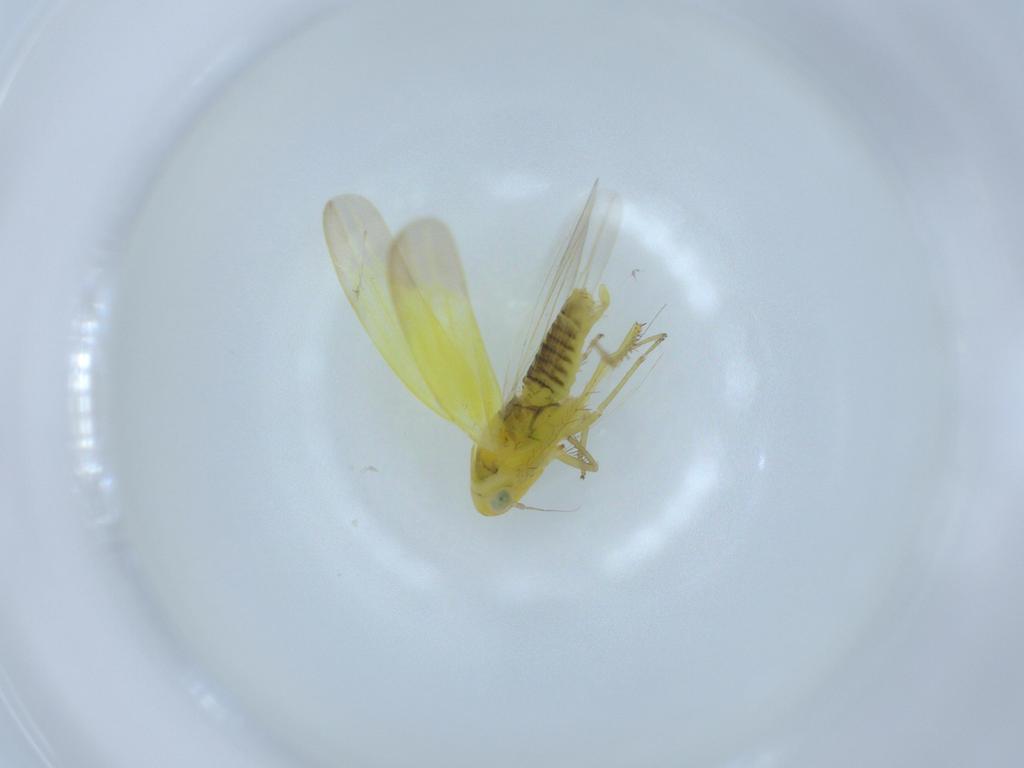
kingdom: Animalia
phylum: Arthropoda
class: Insecta
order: Hemiptera
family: Cicadellidae
